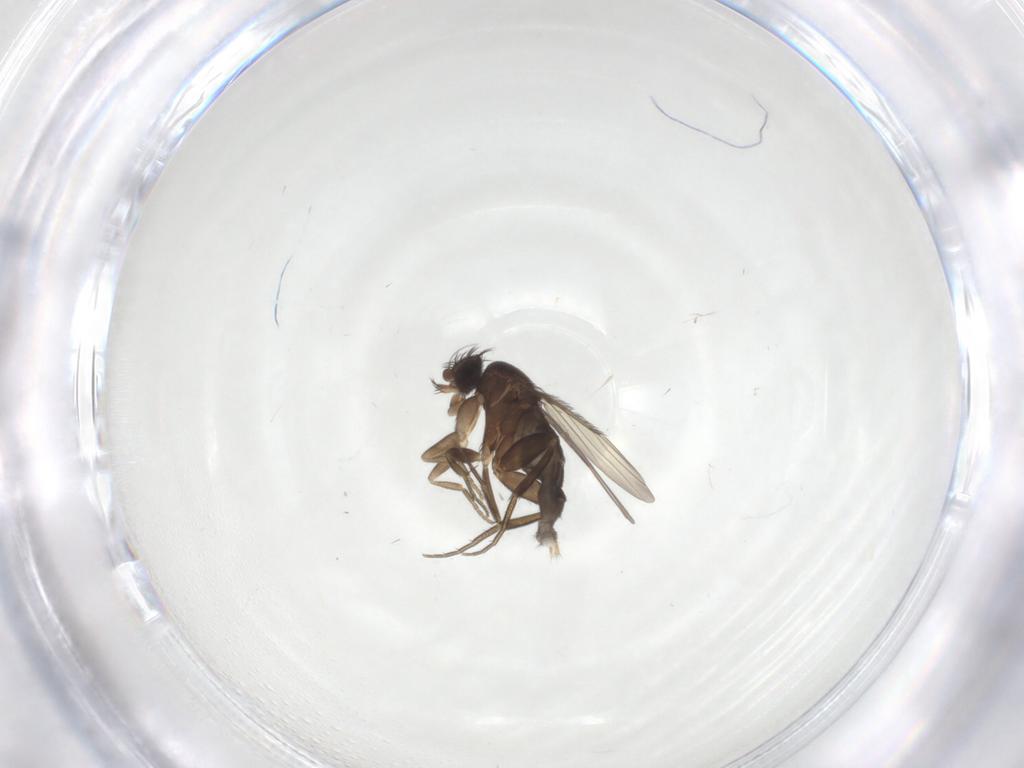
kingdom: Animalia
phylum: Arthropoda
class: Insecta
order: Diptera
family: Phoridae
